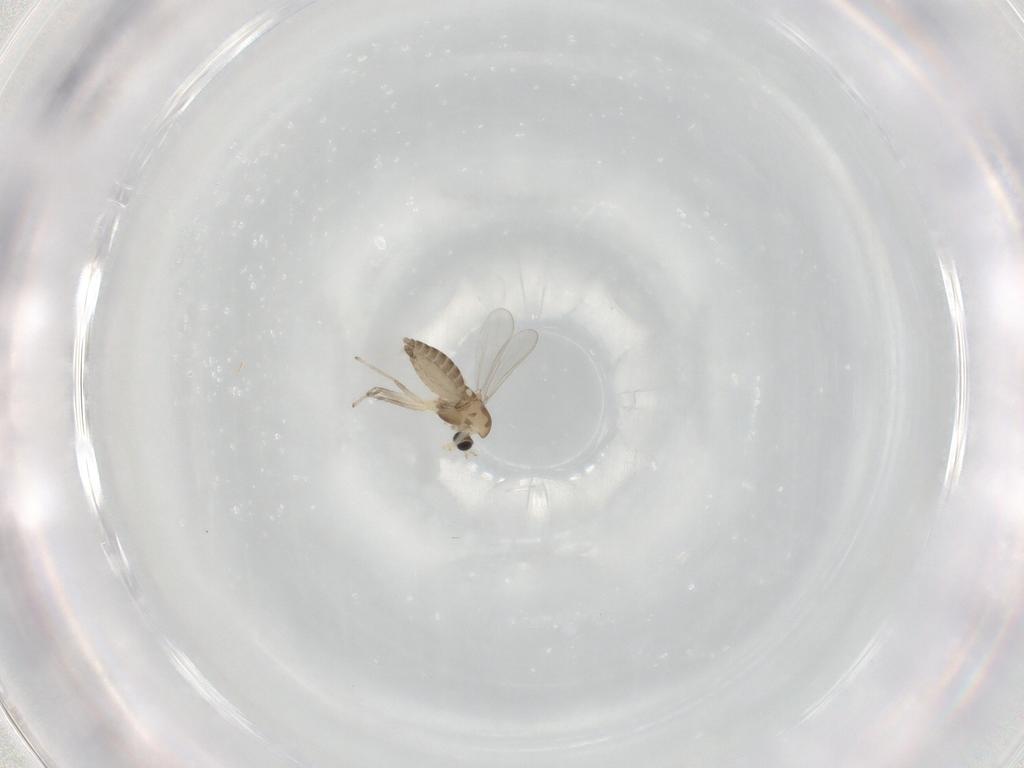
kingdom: Animalia
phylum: Arthropoda
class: Insecta
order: Diptera
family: Chironomidae
